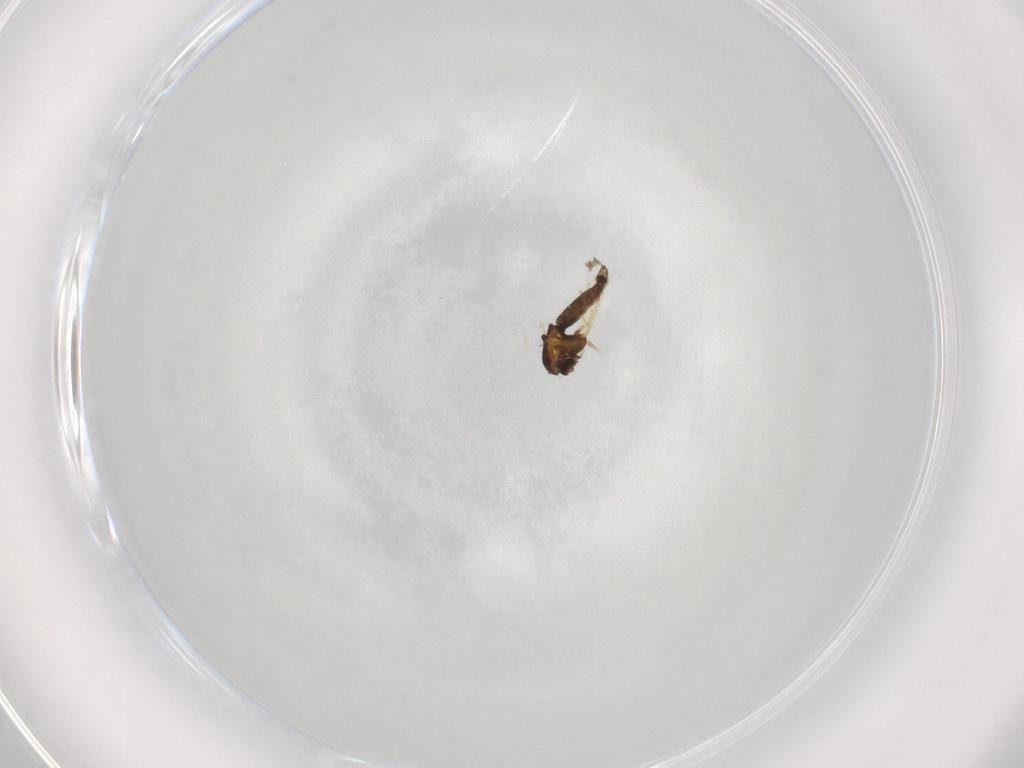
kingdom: Animalia
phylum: Arthropoda
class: Insecta
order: Diptera
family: Chironomidae
